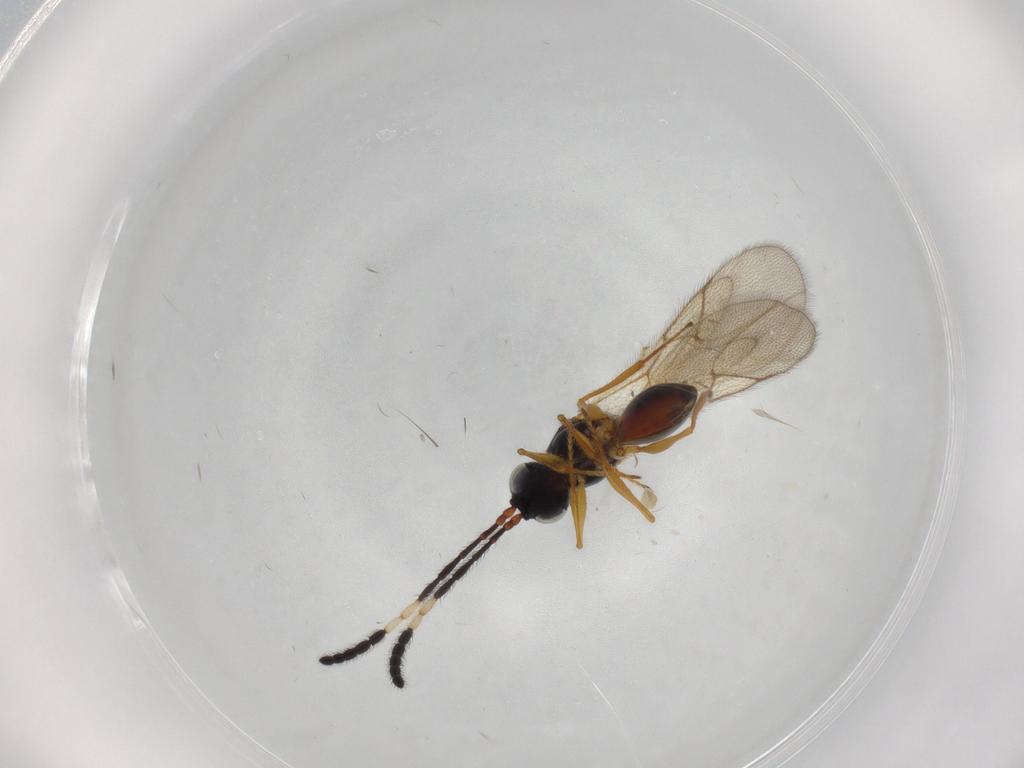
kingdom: Animalia
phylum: Arthropoda
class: Insecta
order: Hymenoptera
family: Figitidae
